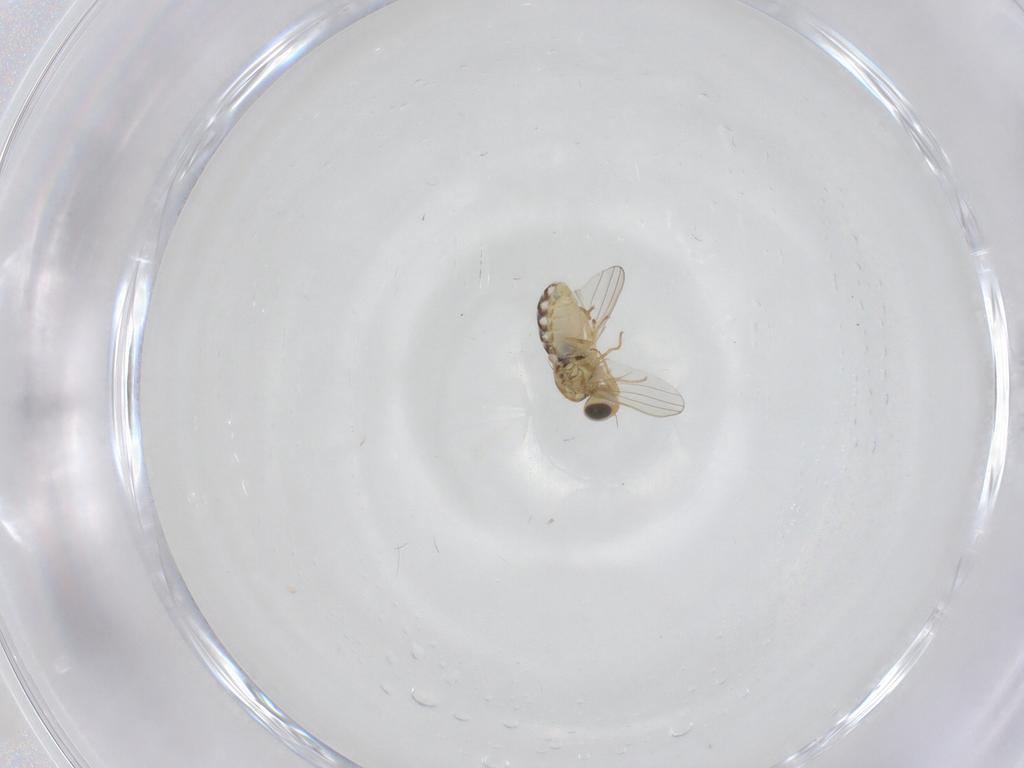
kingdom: Animalia
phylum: Arthropoda
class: Insecta
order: Diptera
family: Chyromyidae
